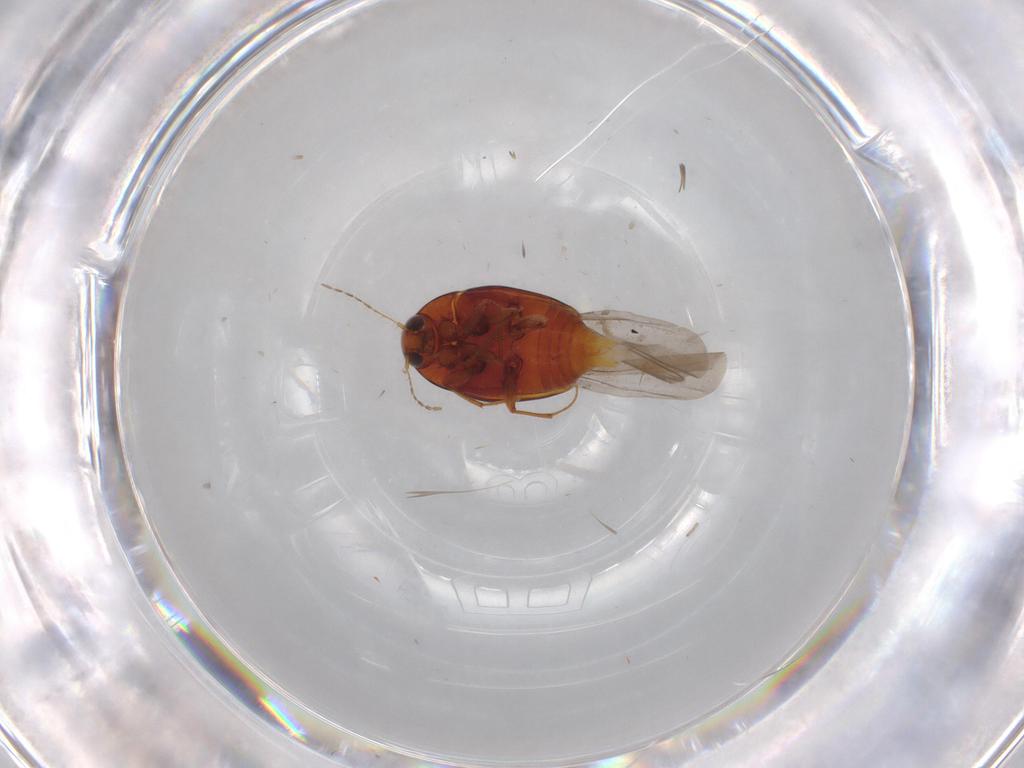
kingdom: Animalia
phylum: Arthropoda
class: Insecta
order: Coleoptera
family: Staphylinidae
